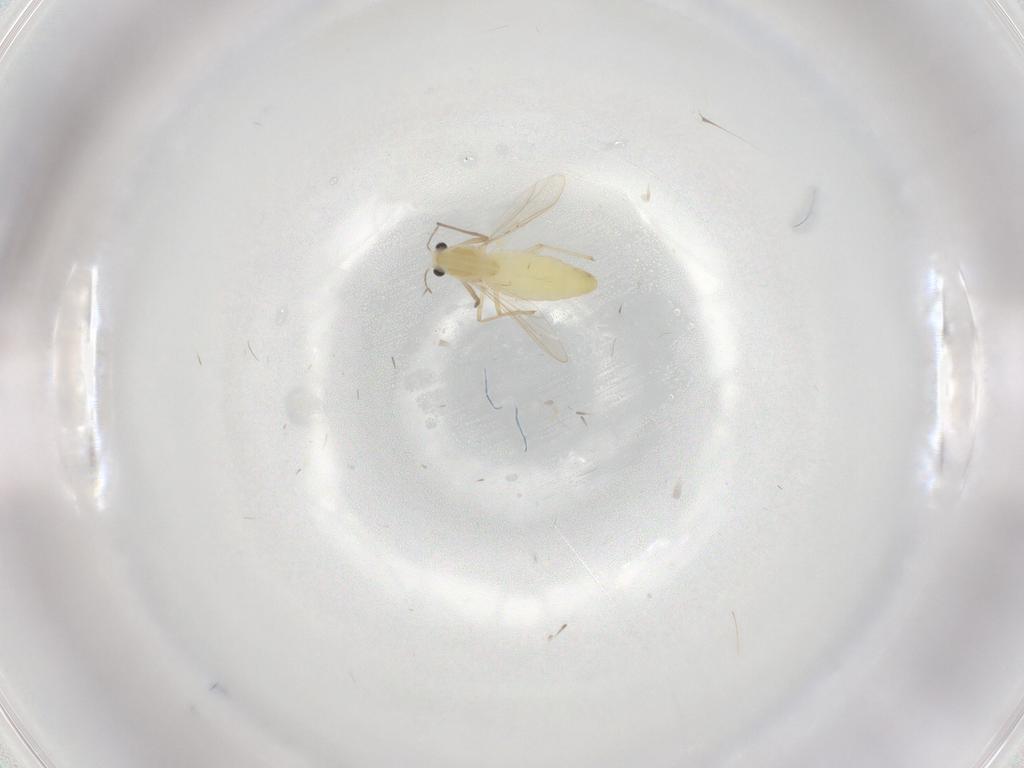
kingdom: Animalia
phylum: Arthropoda
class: Insecta
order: Diptera
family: Chironomidae
